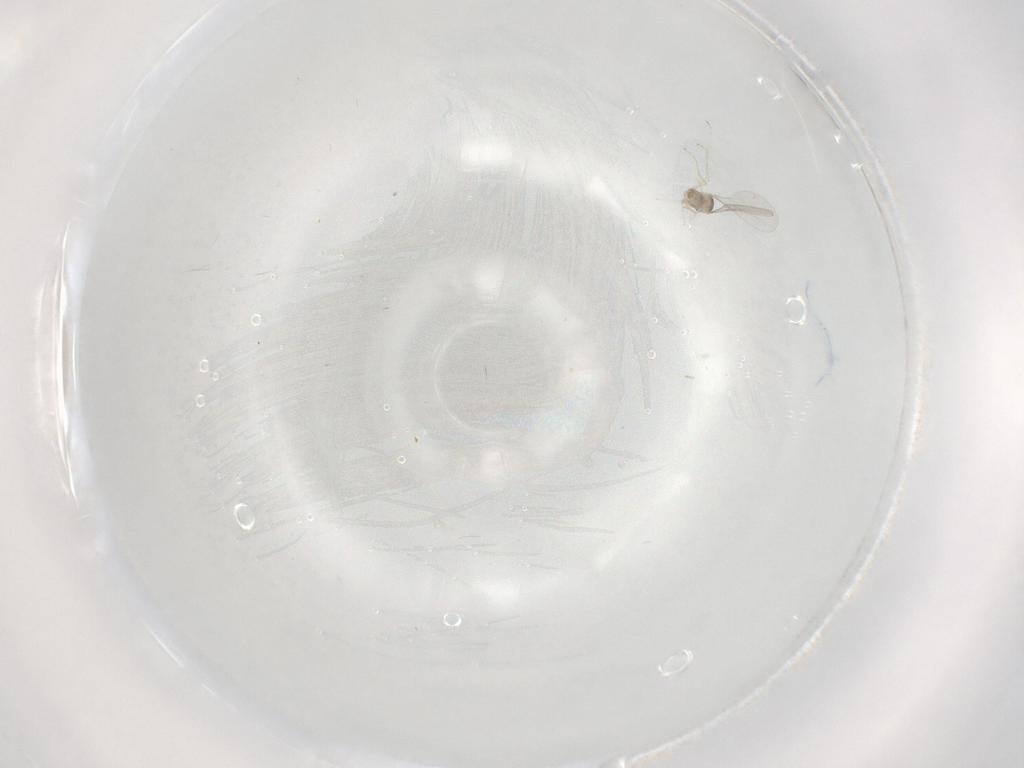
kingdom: Animalia
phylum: Arthropoda
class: Insecta
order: Diptera
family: Cecidomyiidae
